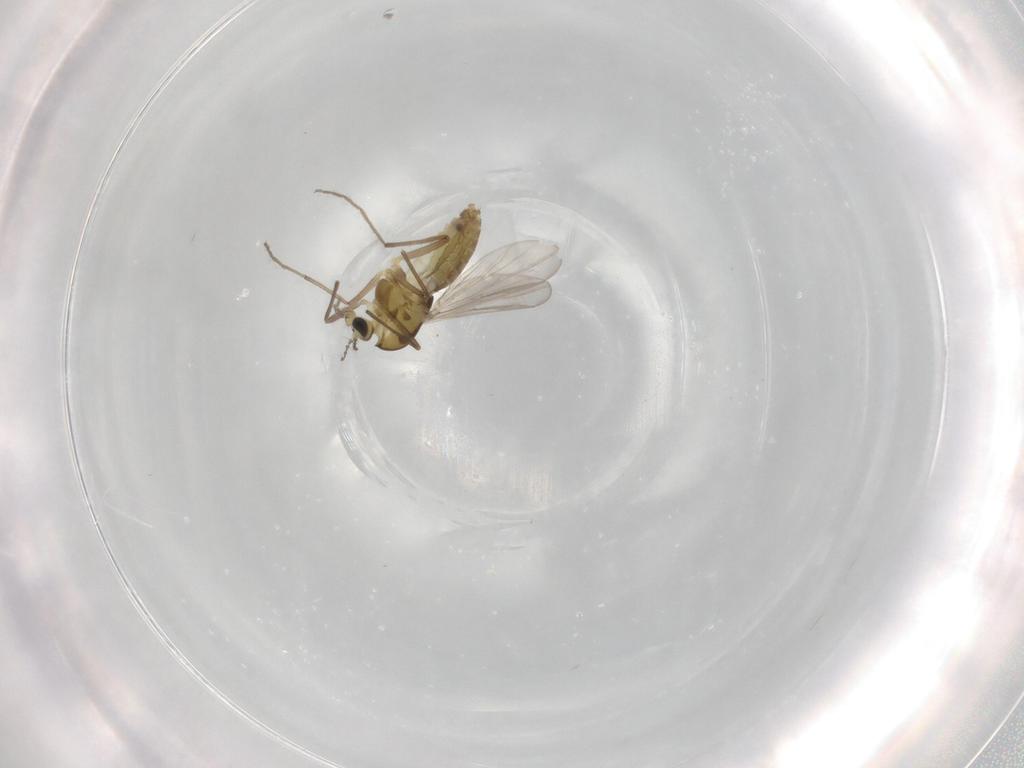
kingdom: Animalia
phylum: Arthropoda
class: Insecta
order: Diptera
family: Chironomidae
